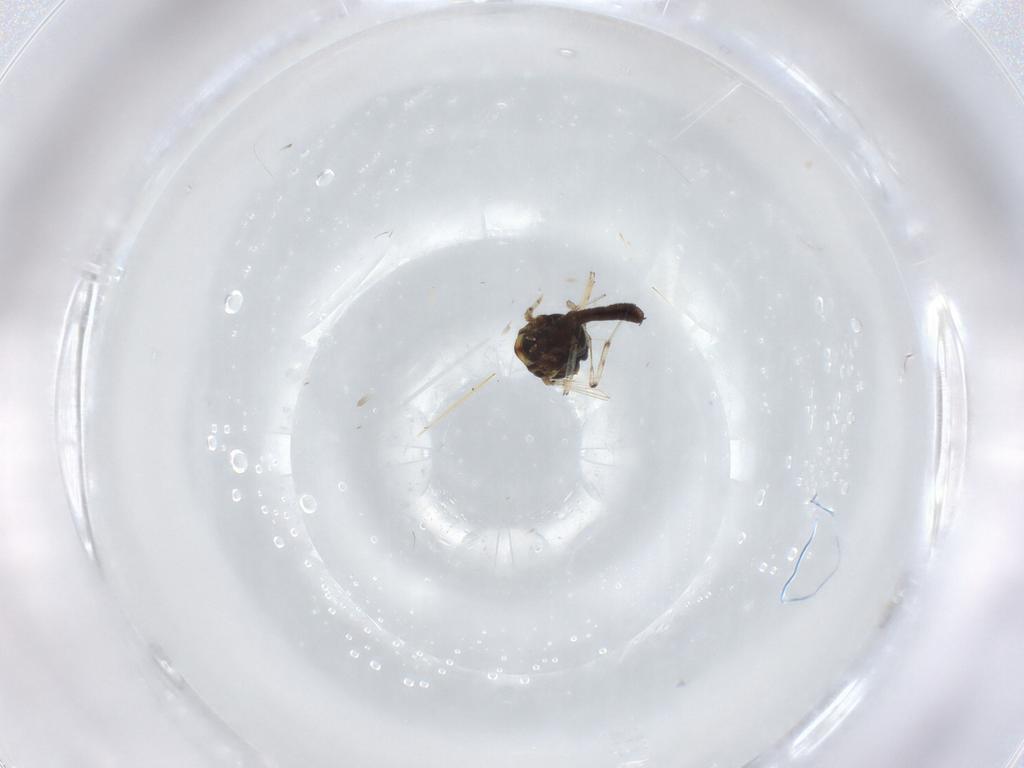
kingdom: Animalia
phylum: Arthropoda
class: Insecta
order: Diptera
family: Ceratopogonidae
